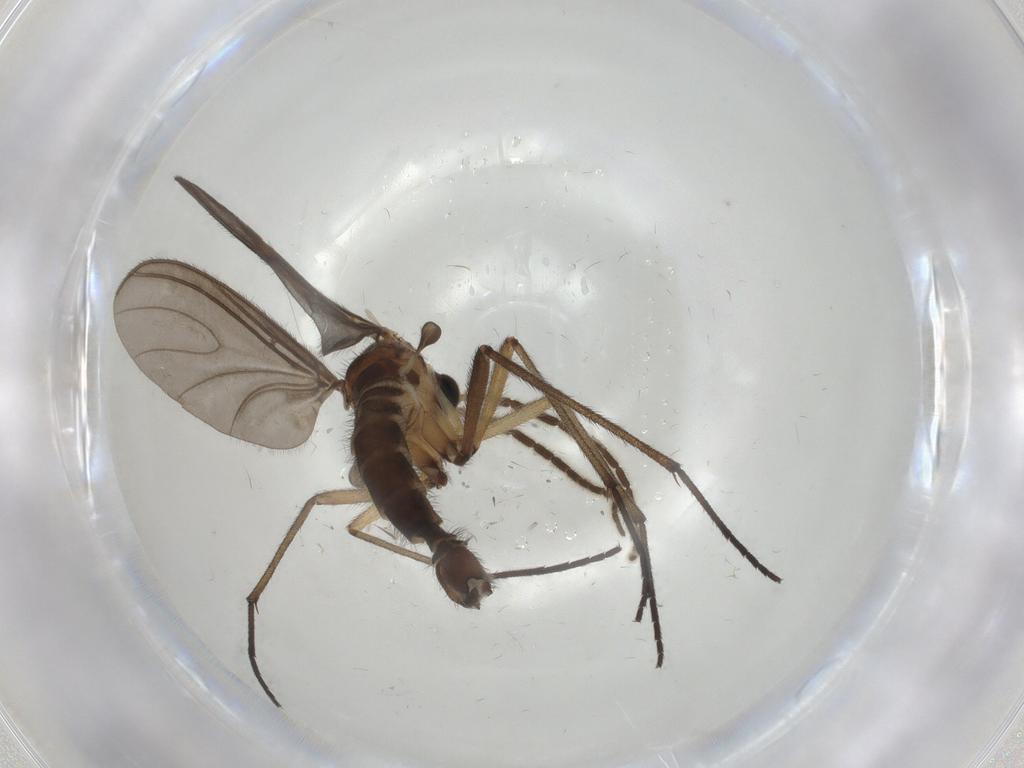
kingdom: Animalia
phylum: Arthropoda
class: Insecta
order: Diptera
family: Sciaridae
